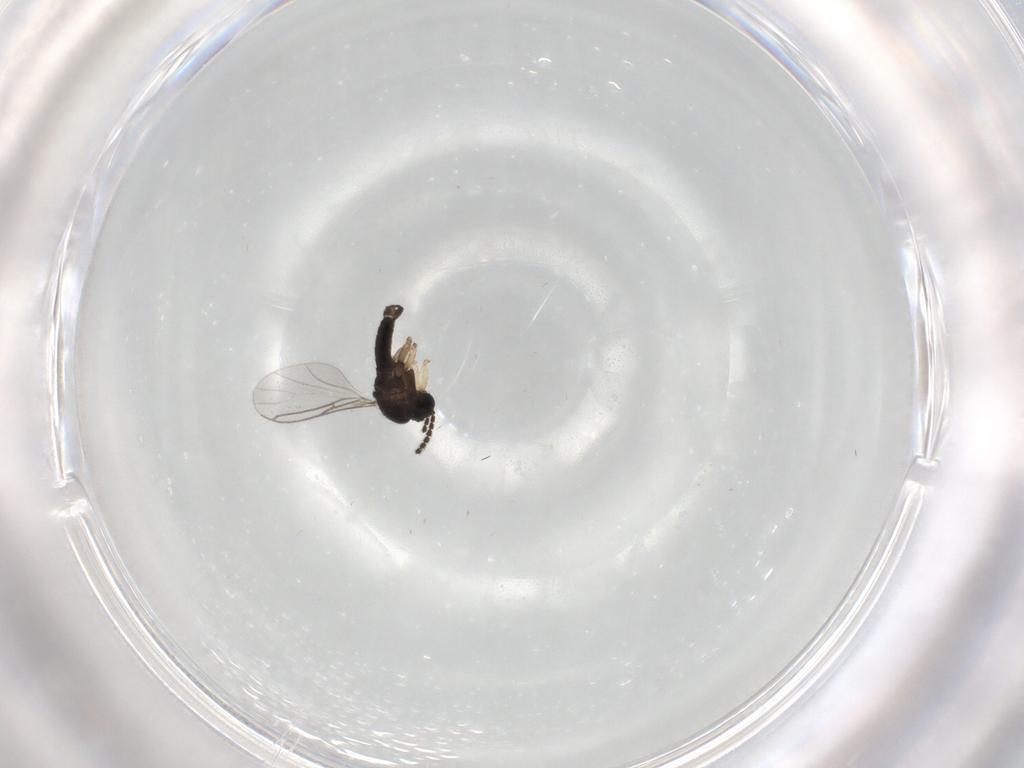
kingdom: Animalia
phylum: Arthropoda
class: Insecta
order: Diptera
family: Sciaridae
